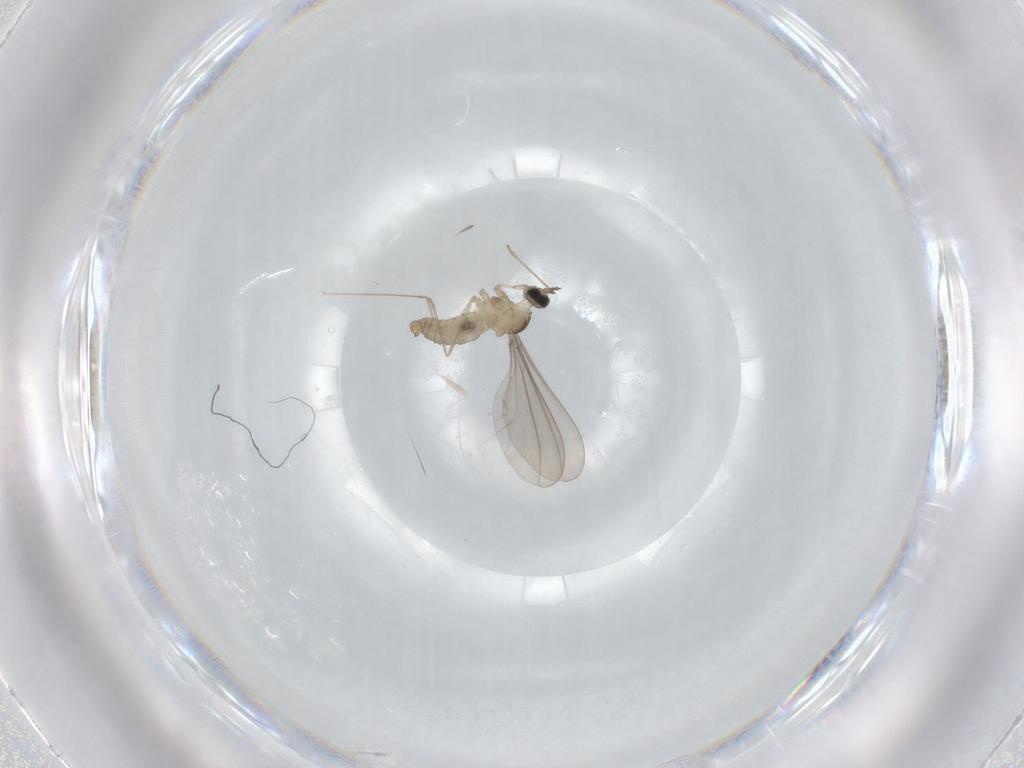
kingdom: Animalia
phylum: Arthropoda
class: Insecta
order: Diptera
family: Cecidomyiidae
